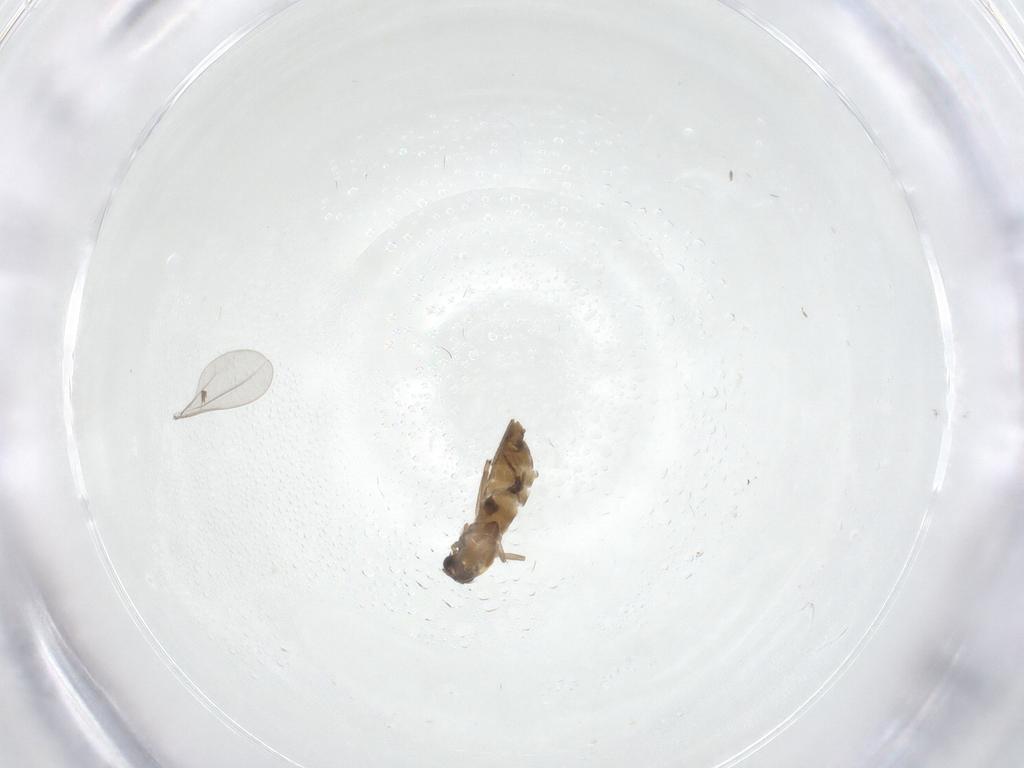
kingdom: Animalia
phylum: Arthropoda
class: Insecta
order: Diptera
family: Chironomidae
